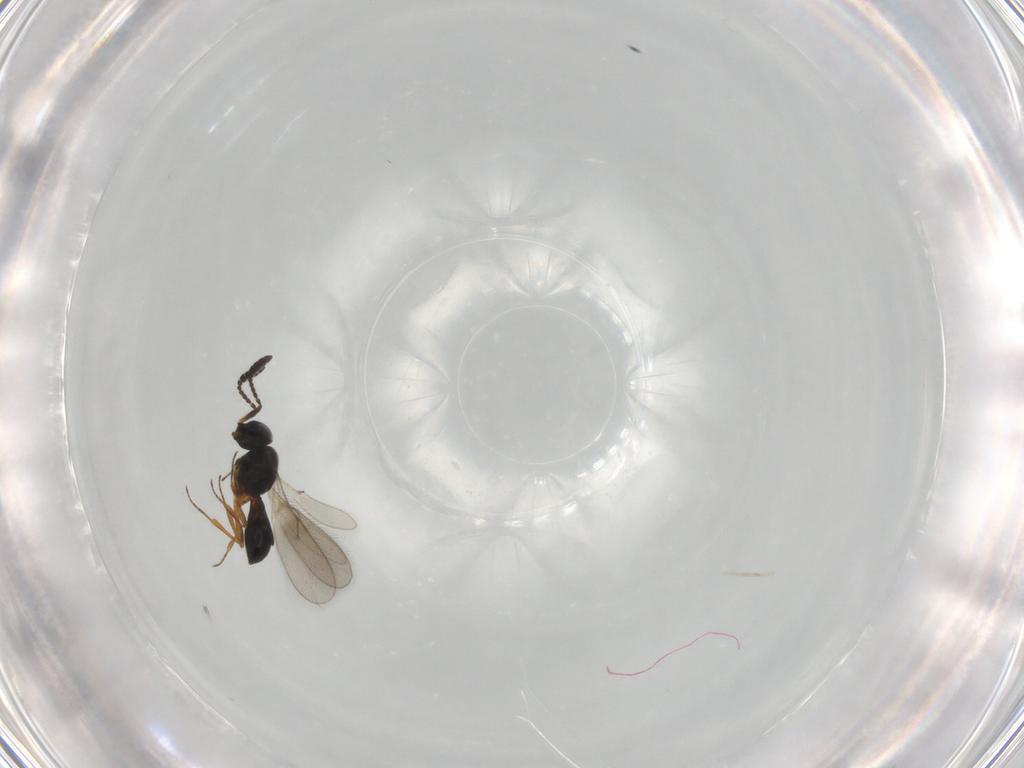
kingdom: Animalia
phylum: Arthropoda
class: Insecta
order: Hymenoptera
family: Scelionidae
